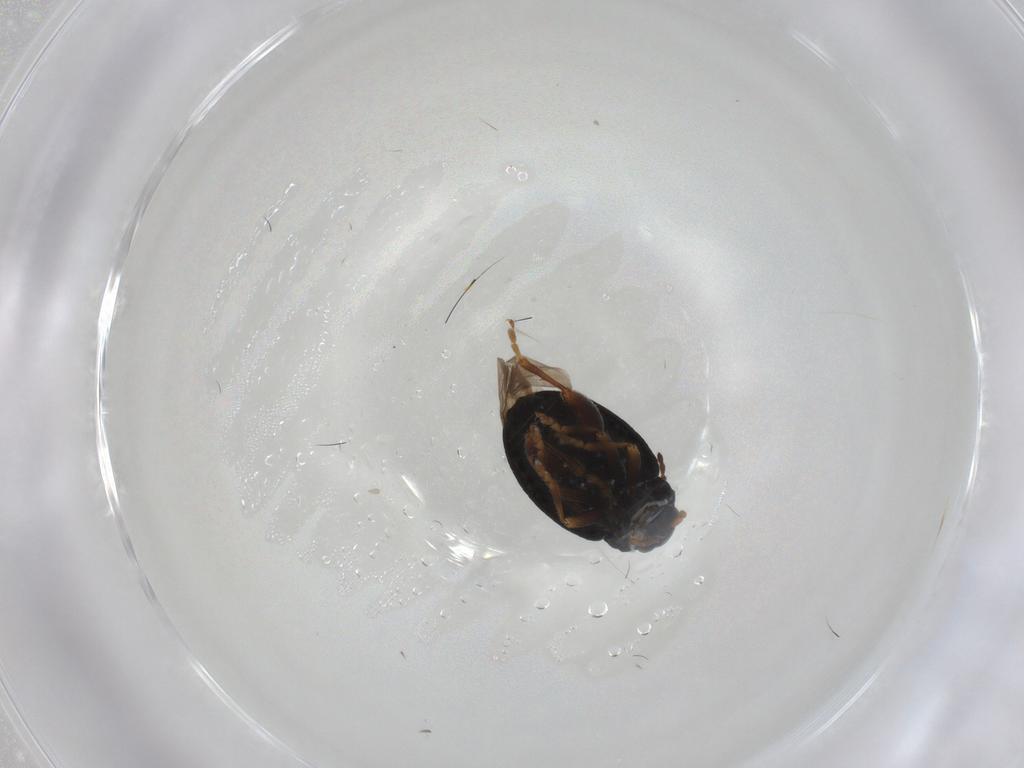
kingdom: Animalia
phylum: Arthropoda
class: Insecta
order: Coleoptera
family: Chrysomelidae
